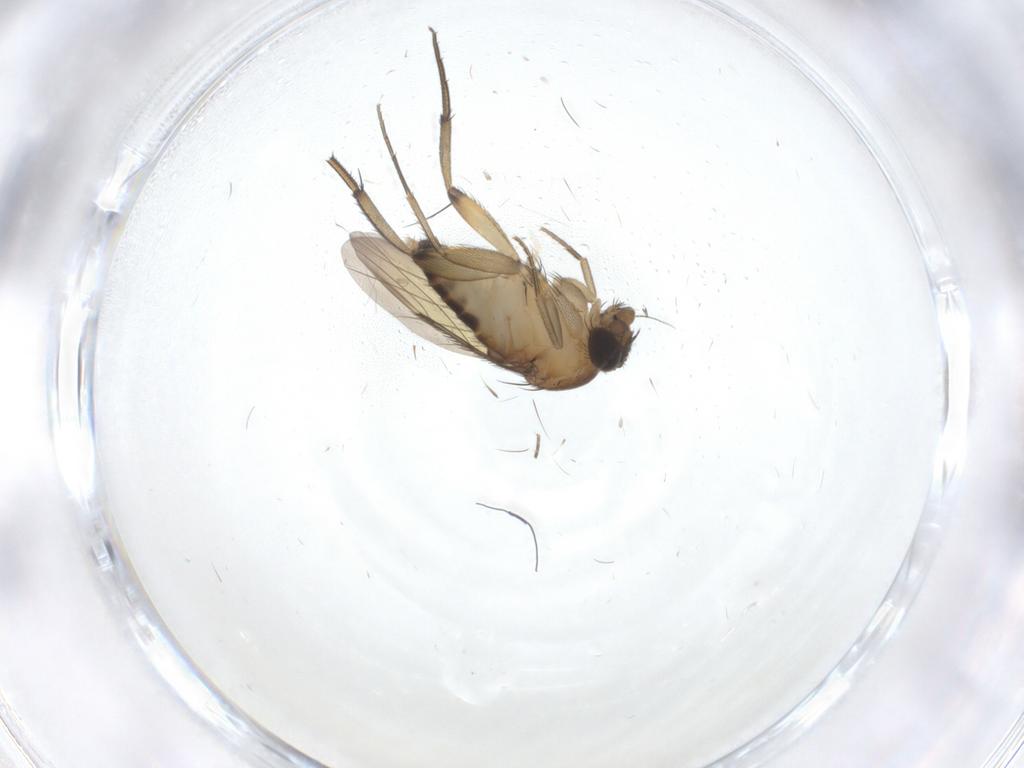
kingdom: Animalia
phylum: Arthropoda
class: Insecta
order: Diptera
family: Phoridae
